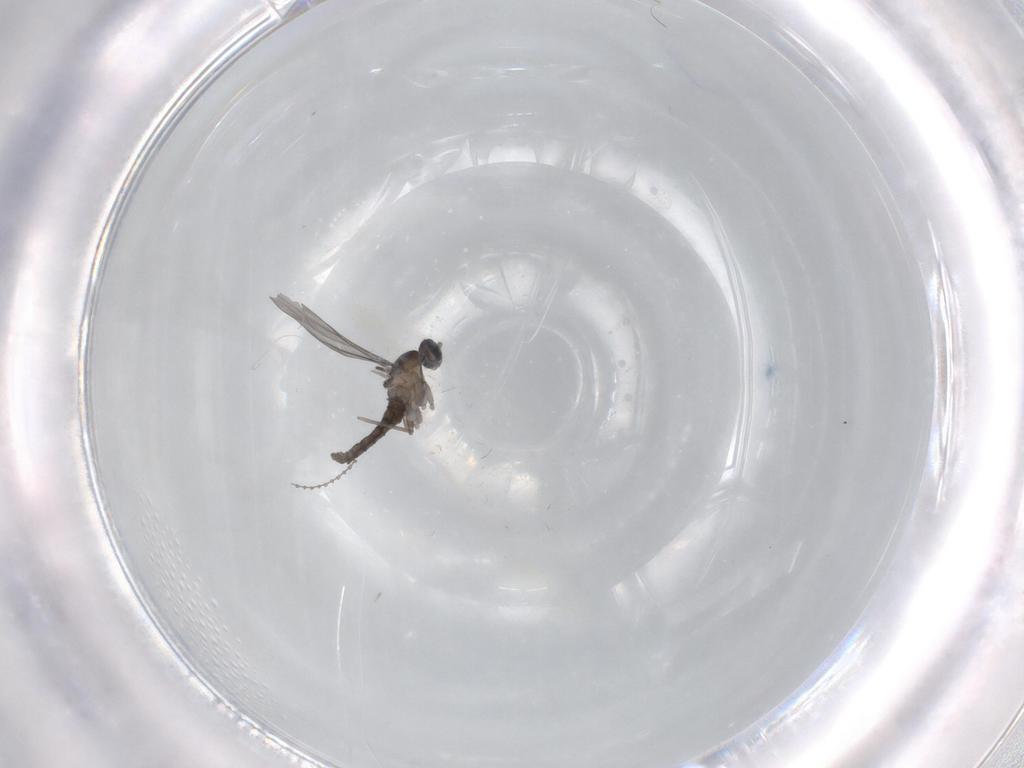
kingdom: Animalia
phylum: Arthropoda
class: Insecta
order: Diptera
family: Cecidomyiidae
